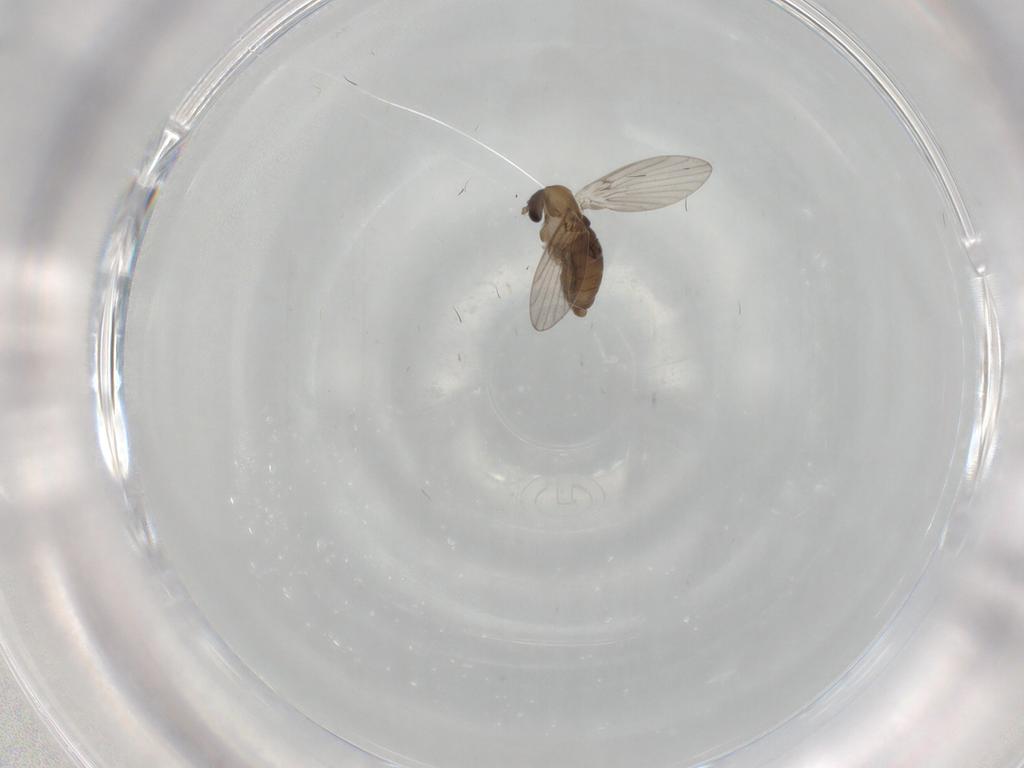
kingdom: Animalia
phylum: Arthropoda
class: Insecta
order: Diptera
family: Psychodidae
